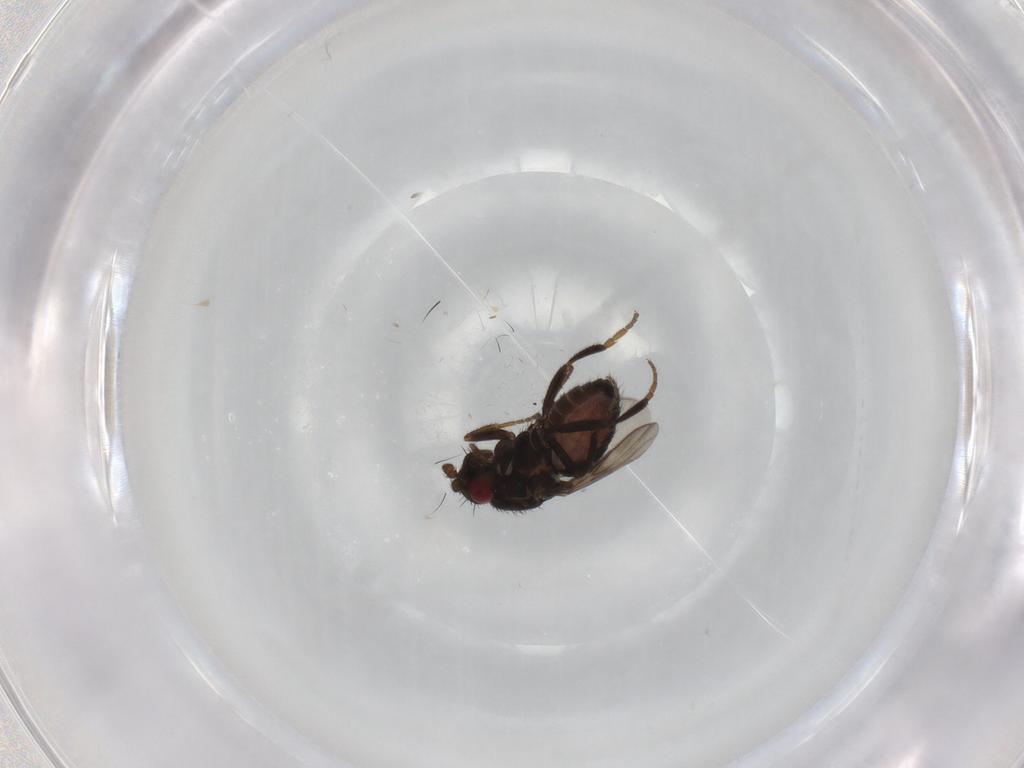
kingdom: Animalia
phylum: Arthropoda
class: Insecta
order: Diptera
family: Sphaeroceridae
